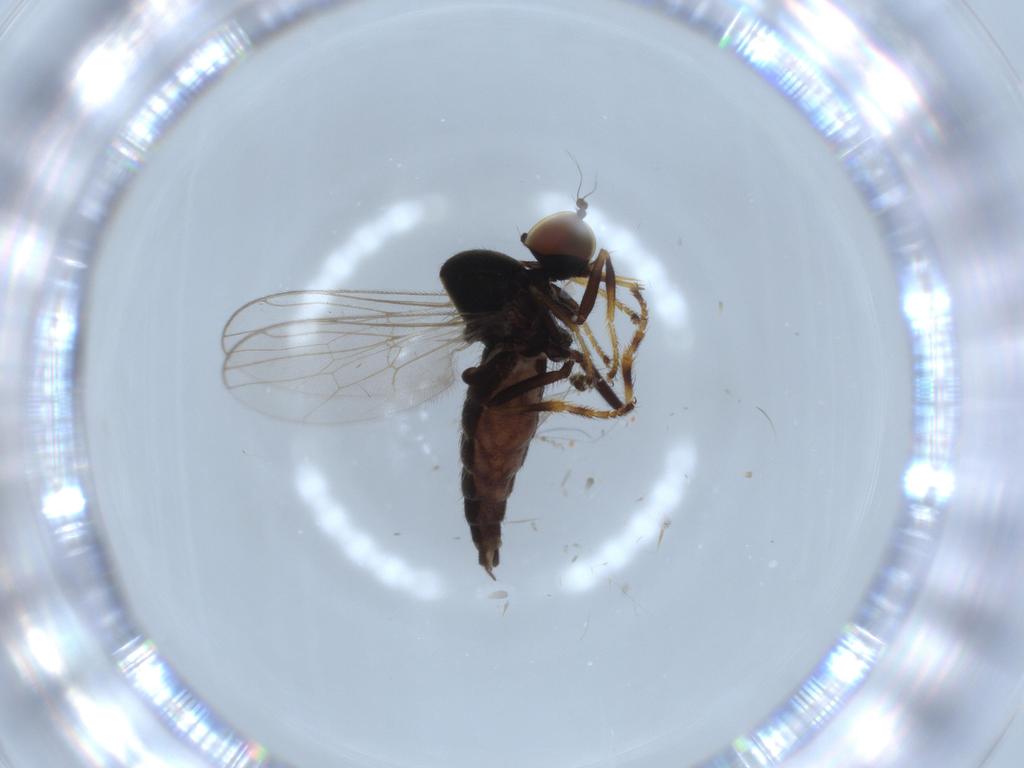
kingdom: Animalia
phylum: Arthropoda
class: Insecta
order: Diptera
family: Hybotidae
